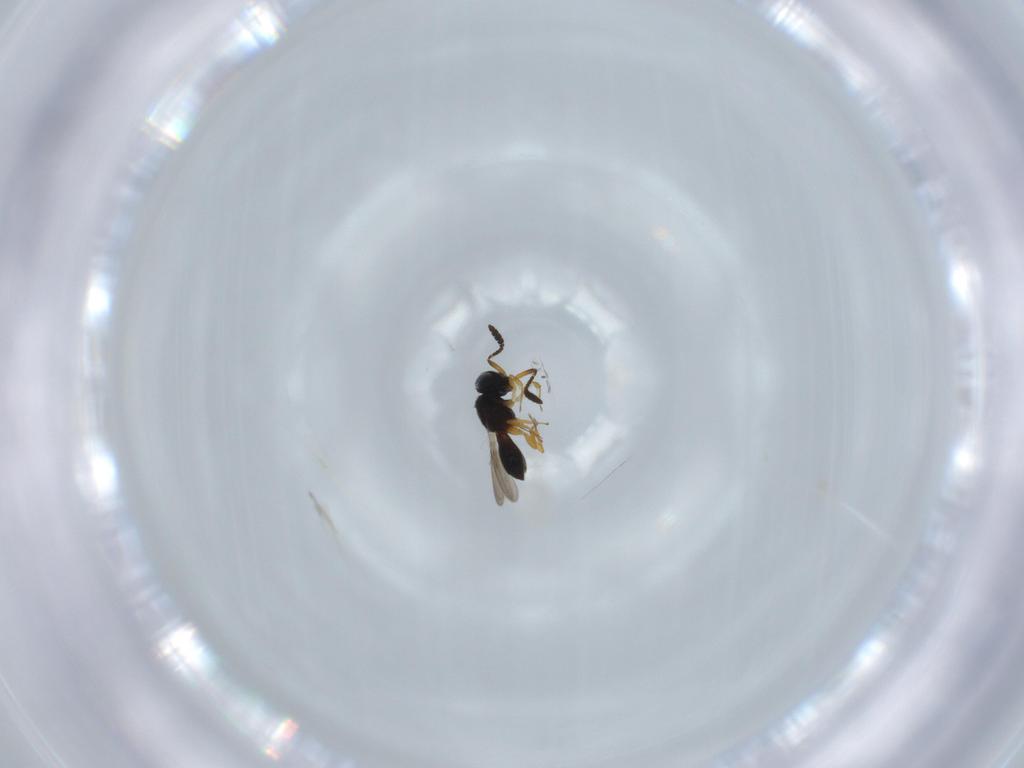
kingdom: Animalia
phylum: Arthropoda
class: Insecta
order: Hymenoptera
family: Scelionidae
